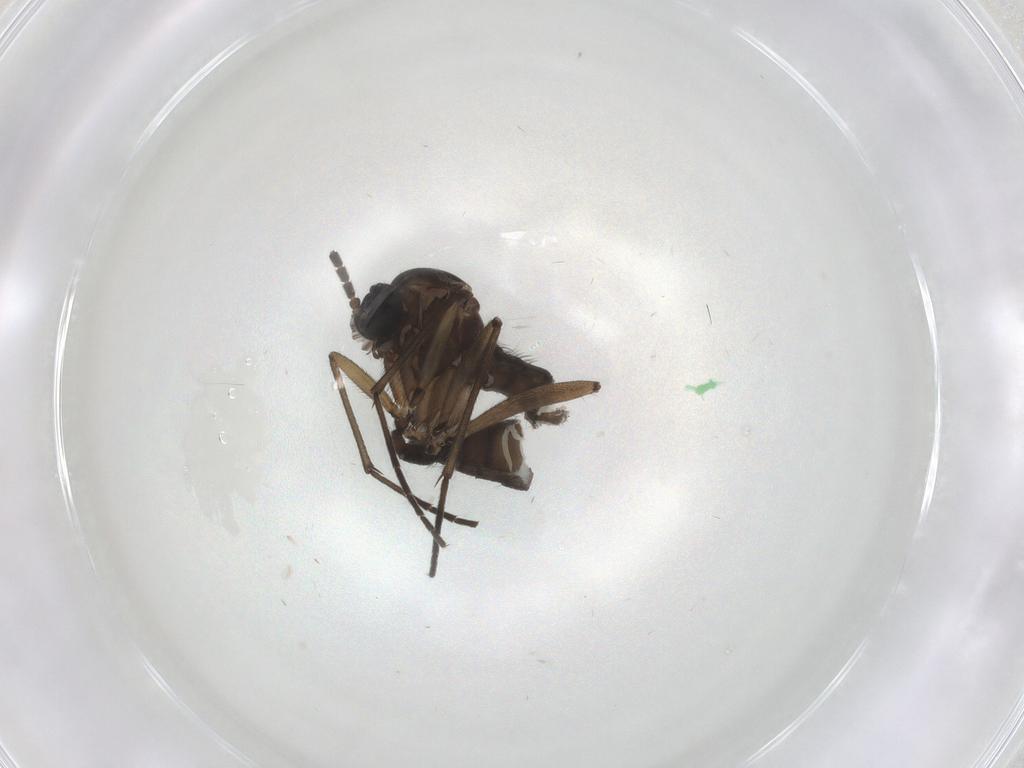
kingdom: Animalia
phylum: Arthropoda
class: Insecta
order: Diptera
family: Sciaridae
